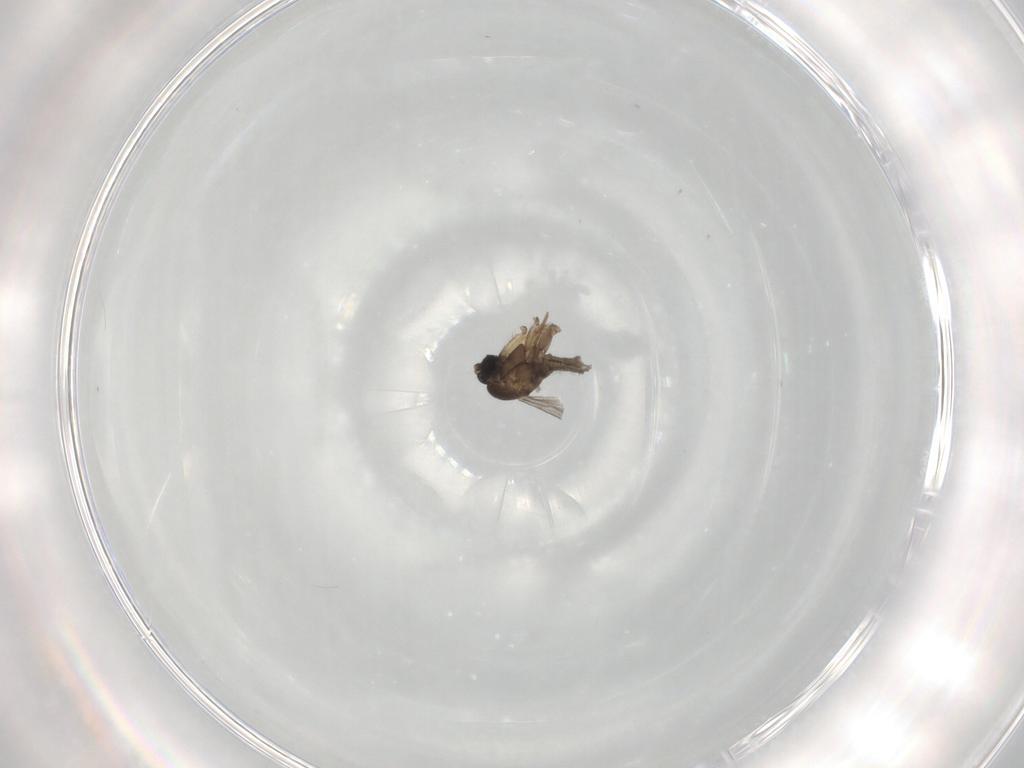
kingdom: Animalia
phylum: Arthropoda
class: Insecta
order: Diptera
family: Sciaridae
